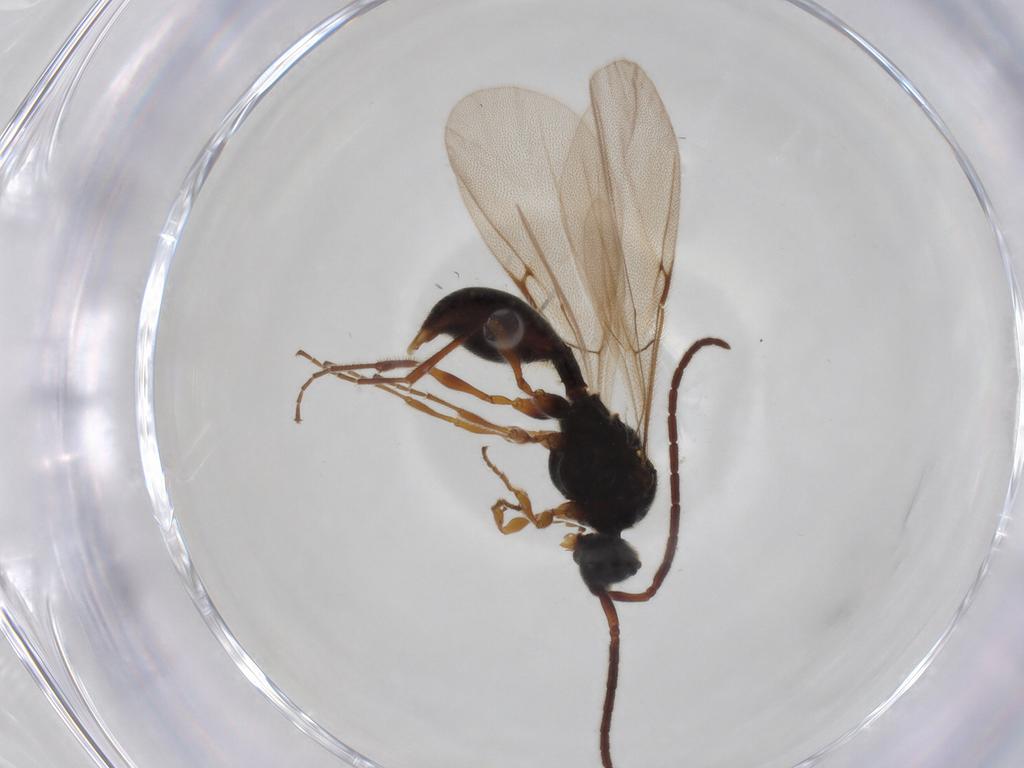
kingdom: Animalia
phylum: Arthropoda
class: Insecta
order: Hymenoptera
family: Diapriidae
